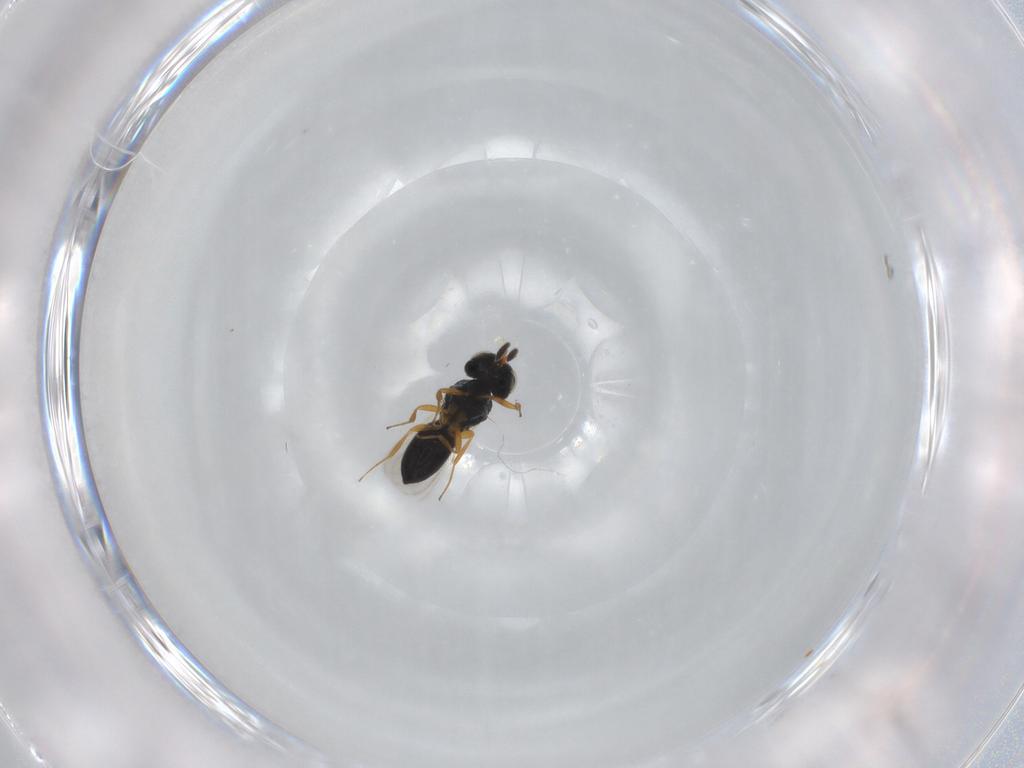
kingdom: Animalia
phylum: Arthropoda
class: Insecta
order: Hymenoptera
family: Scelionidae
